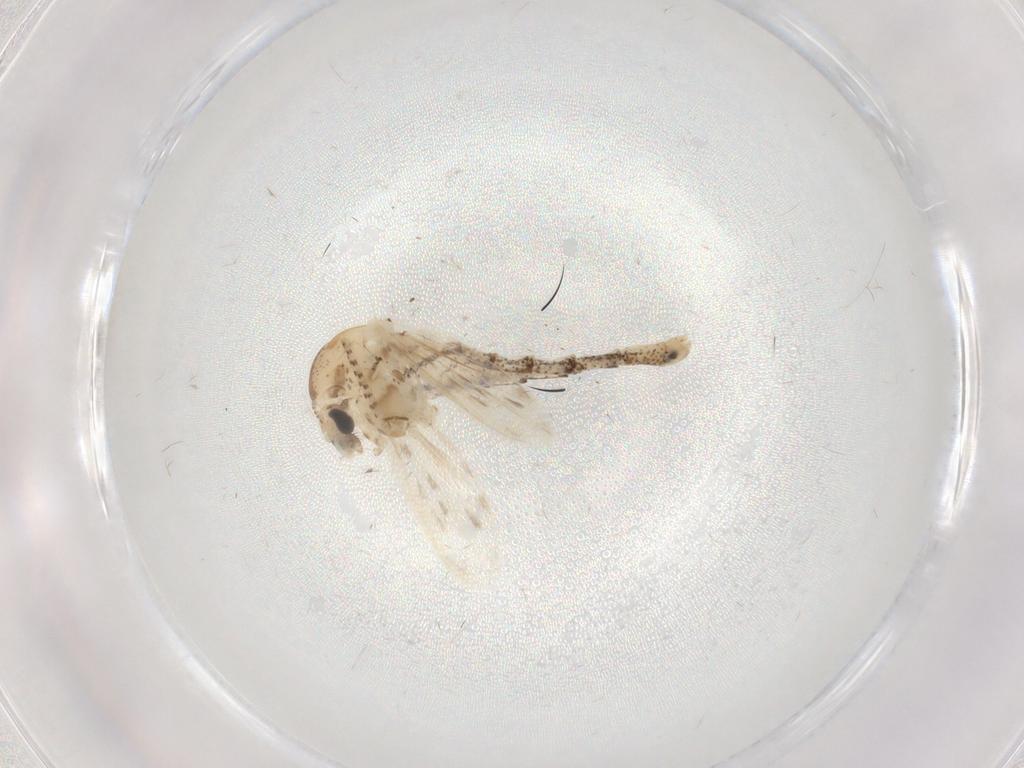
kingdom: Animalia
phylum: Arthropoda
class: Insecta
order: Diptera
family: Chaoboridae
